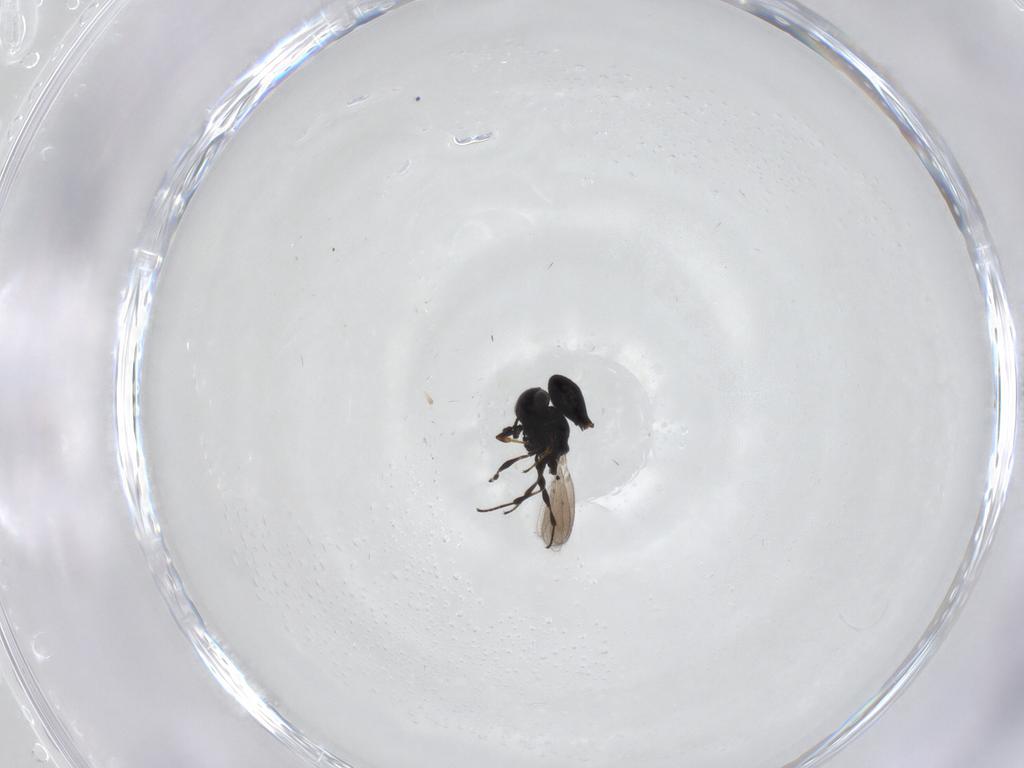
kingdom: Animalia
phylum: Arthropoda
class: Insecta
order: Hymenoptera
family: Platygastridae
